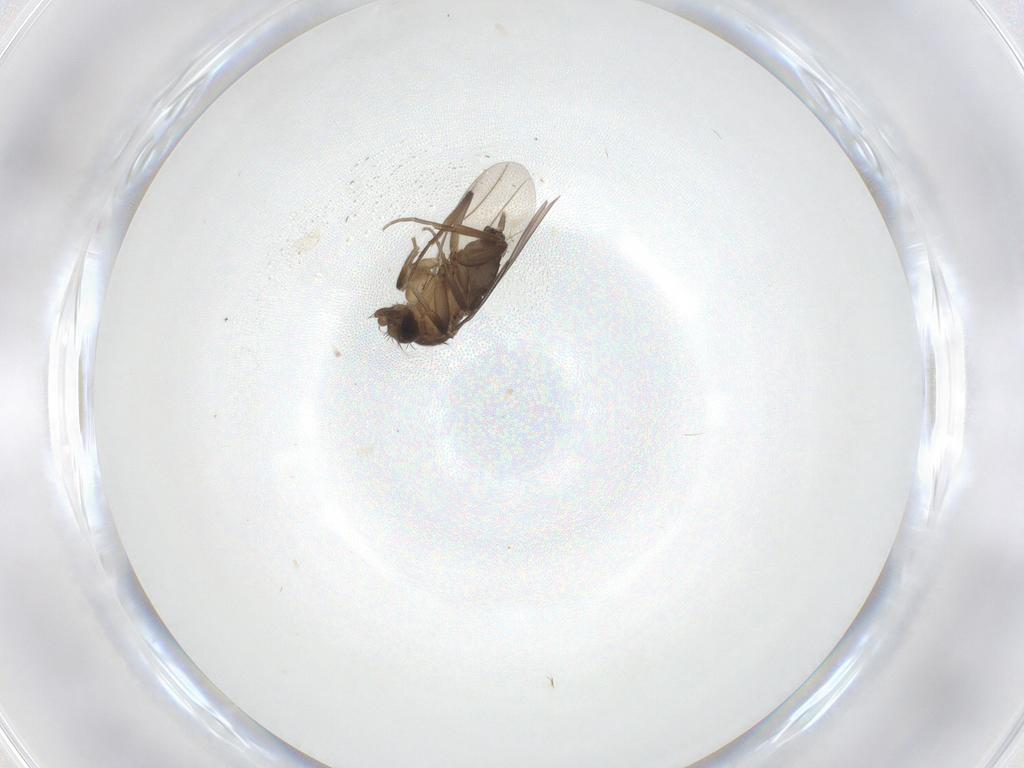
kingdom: Animalia
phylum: Arthropoda
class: Insecta
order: Diptera
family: Phoridae
